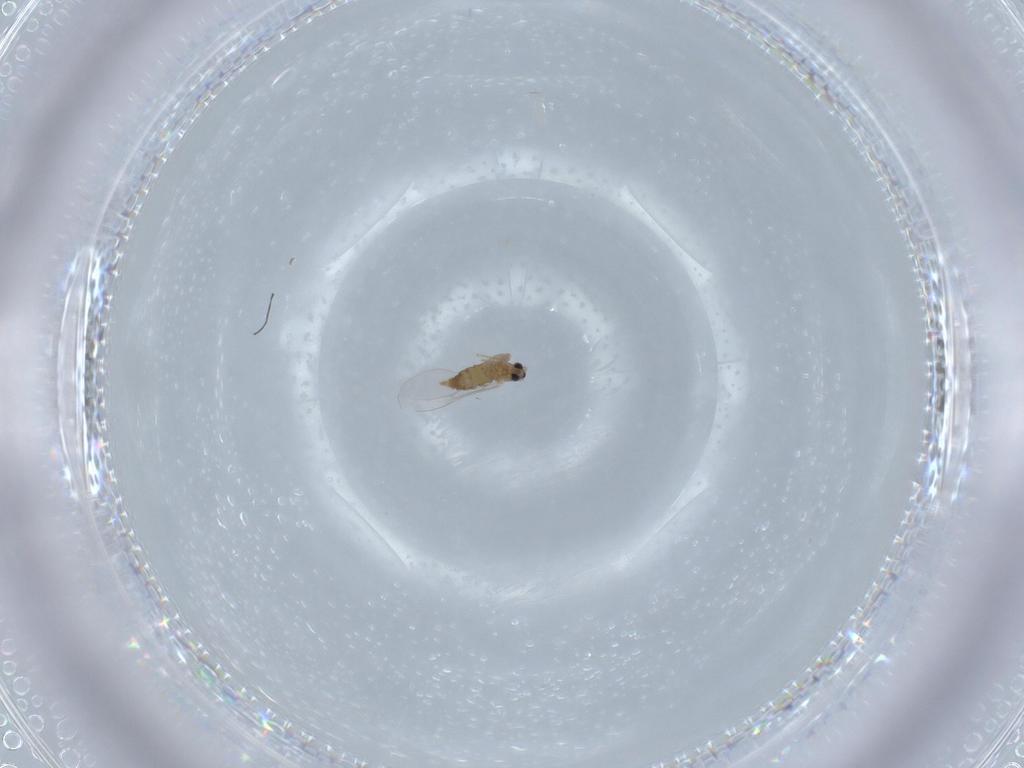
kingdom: Animalia
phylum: Arthropoda
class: Insecta
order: Diptera
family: Cecidomyiidae
